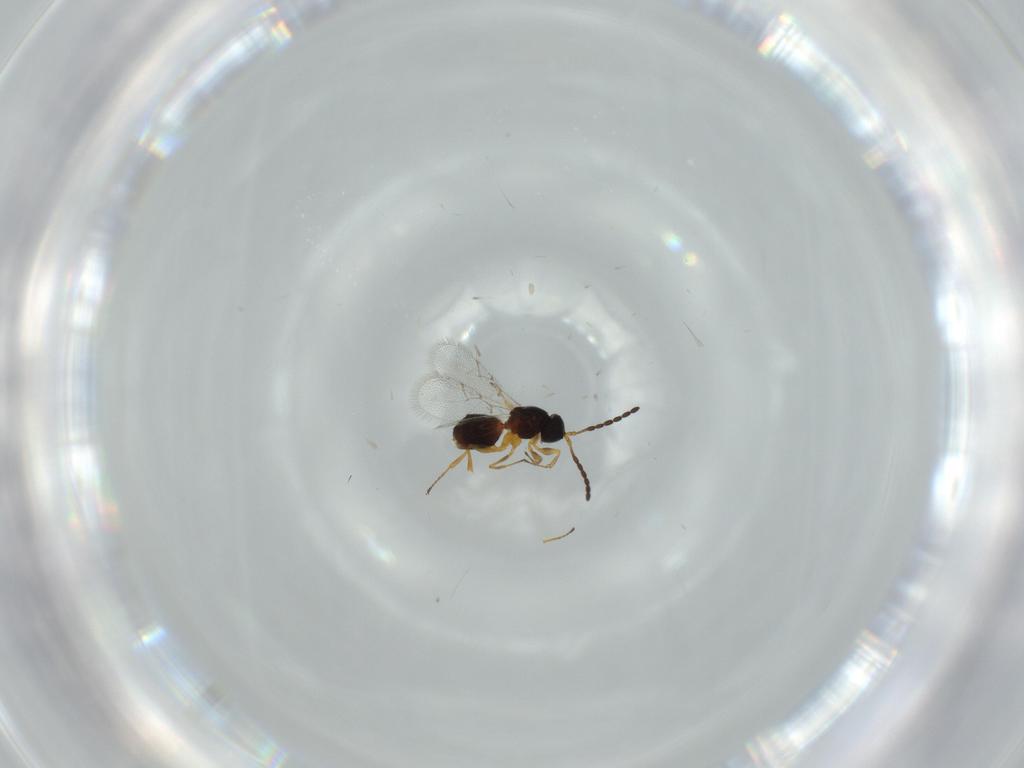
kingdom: Animalia
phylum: Arthropoda
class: Insecta
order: Hymenoptera
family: Figitidae
